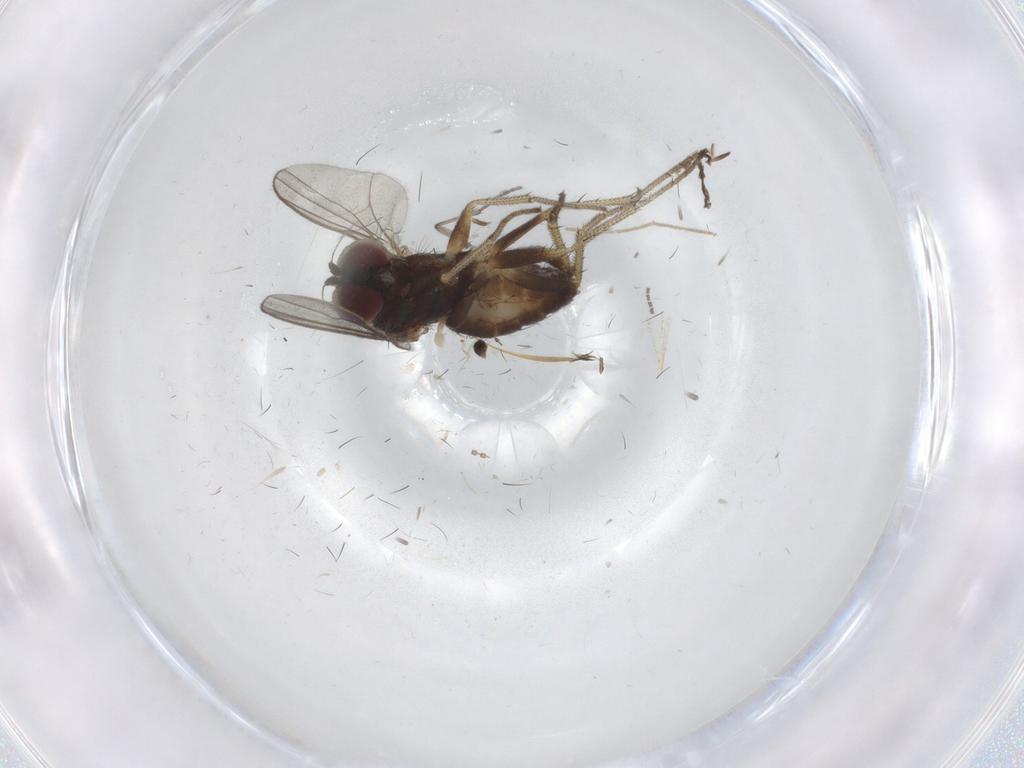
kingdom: Animalia
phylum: Arthropoda
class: Insecta
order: Diptera
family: Sciaridae
